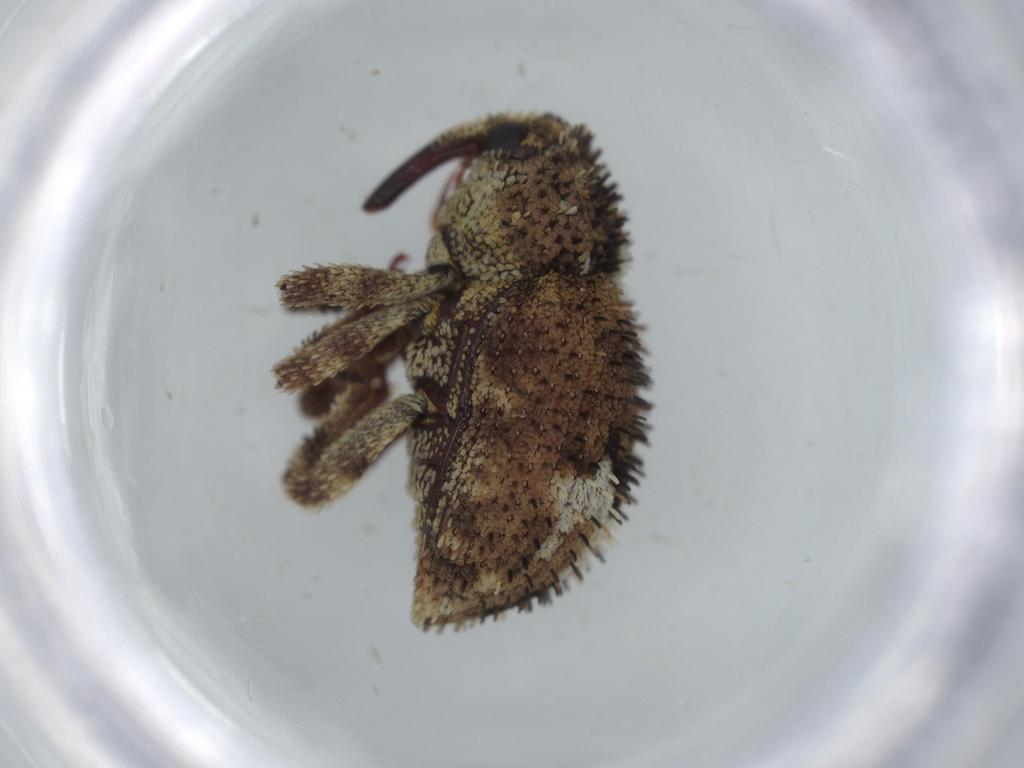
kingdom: Animalia
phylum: Arthropoda
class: Insecta
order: Coleoptera
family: Curculionidae
